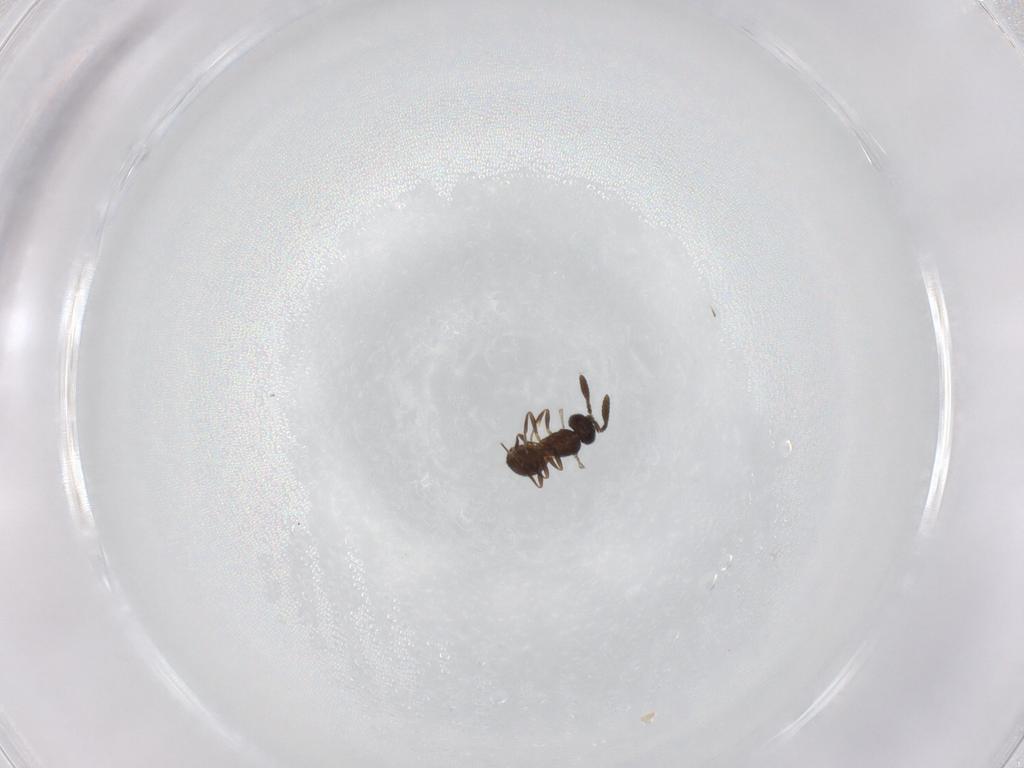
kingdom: Animalia
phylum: Arthropoda
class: Insecta
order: Hymenoptera
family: Scelionidae
